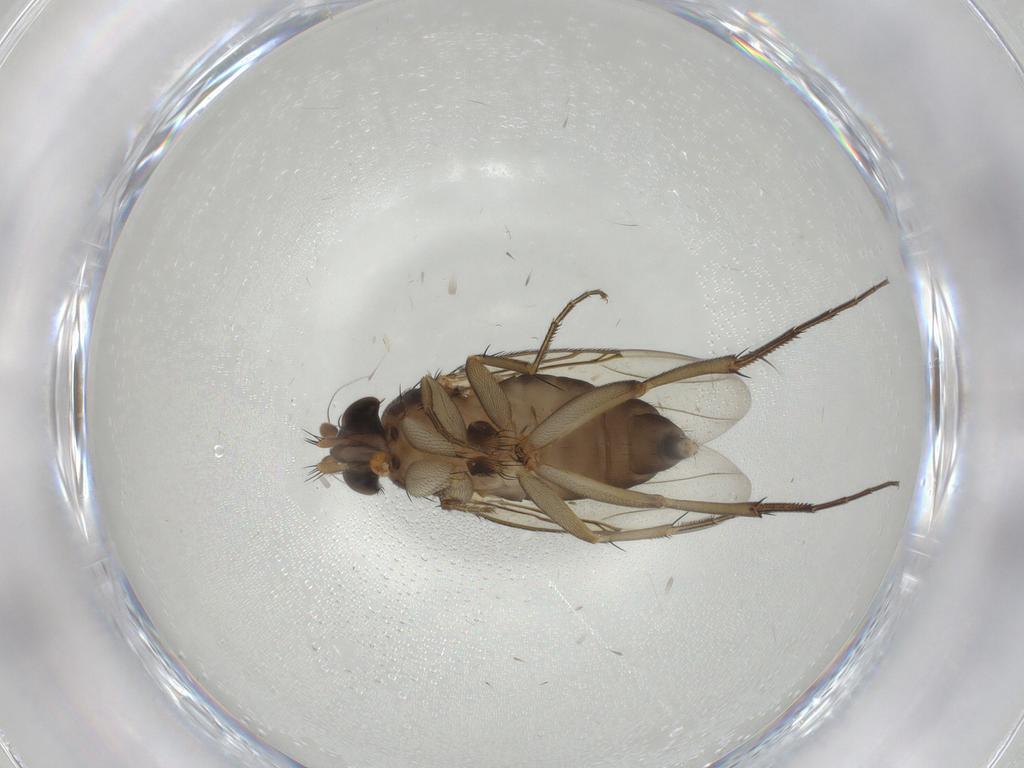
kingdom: Animalia
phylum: Arthropoda
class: Insecta
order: Diptera
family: Phoridae
